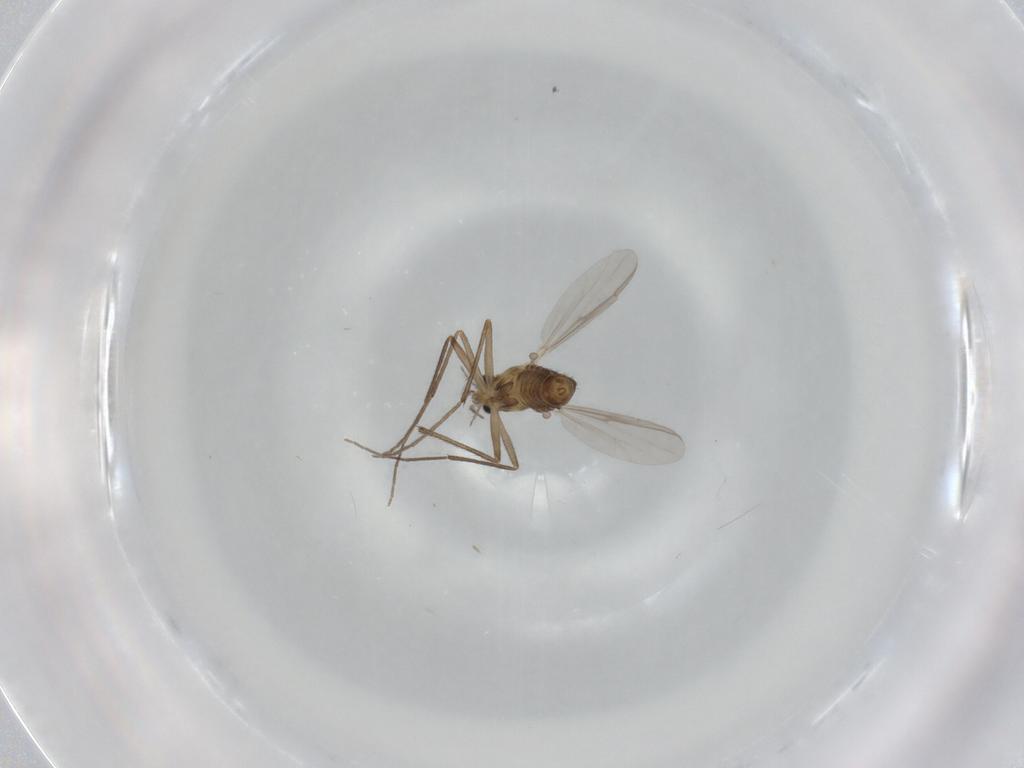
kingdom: Animalia
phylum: Arthropoda
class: Insecta
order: Diptera
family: Chironomidae
